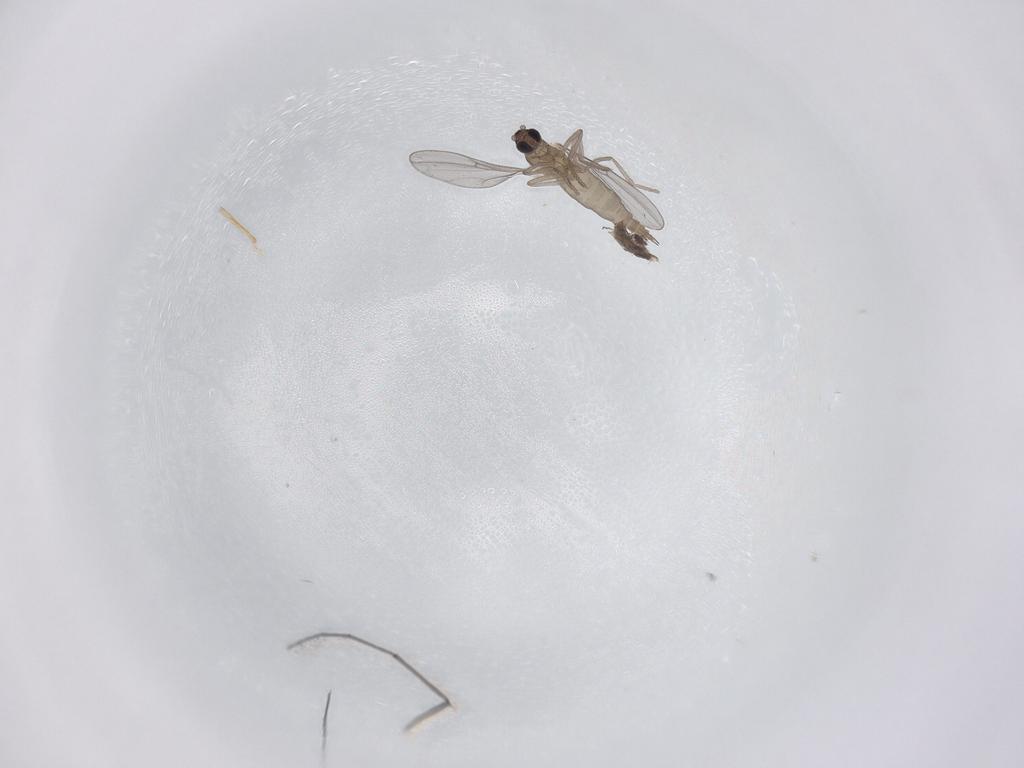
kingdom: Animalia
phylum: Arthropoda
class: Insecta
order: Diptera
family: Cecidomyiidae
